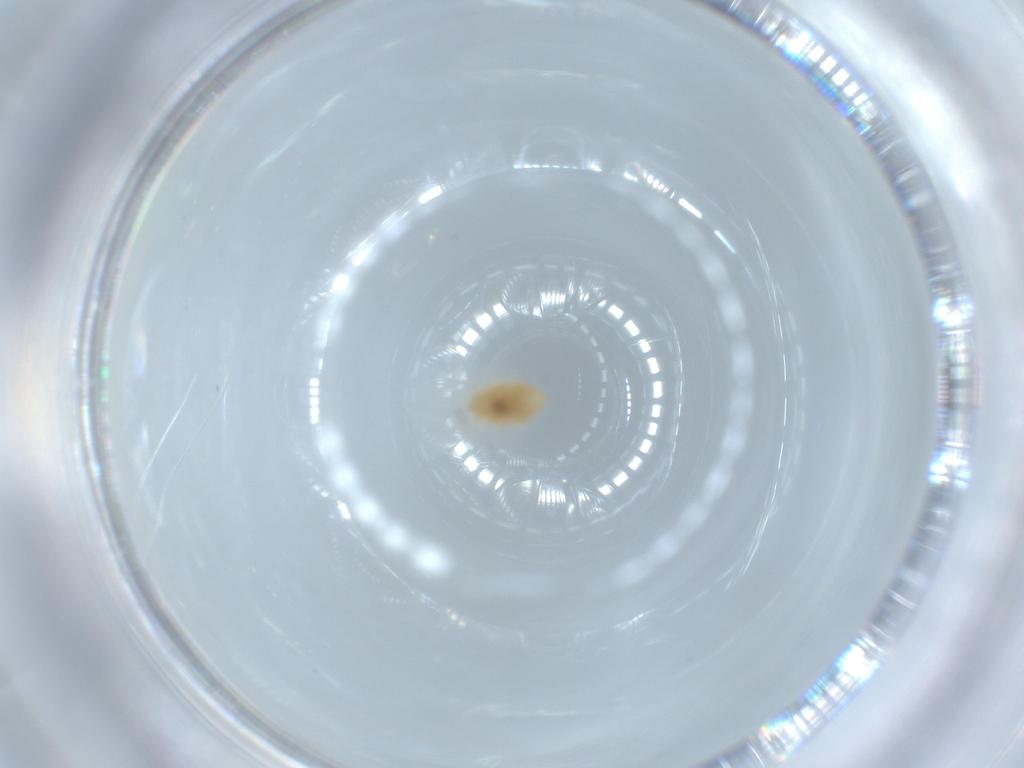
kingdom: Animalia
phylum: Arthropoda
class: Insecta
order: Neuroptera
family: Coniopterygidae
